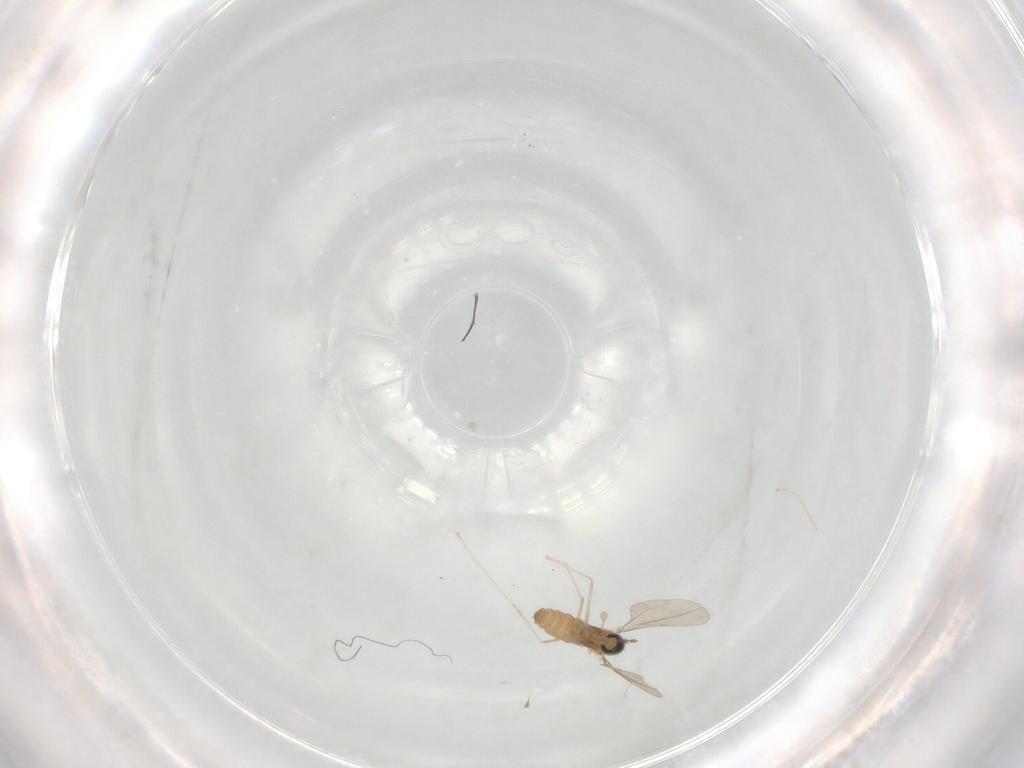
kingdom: Animalia
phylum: Arthropoda
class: Insecta
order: Diptera
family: Cecidomyiidae
